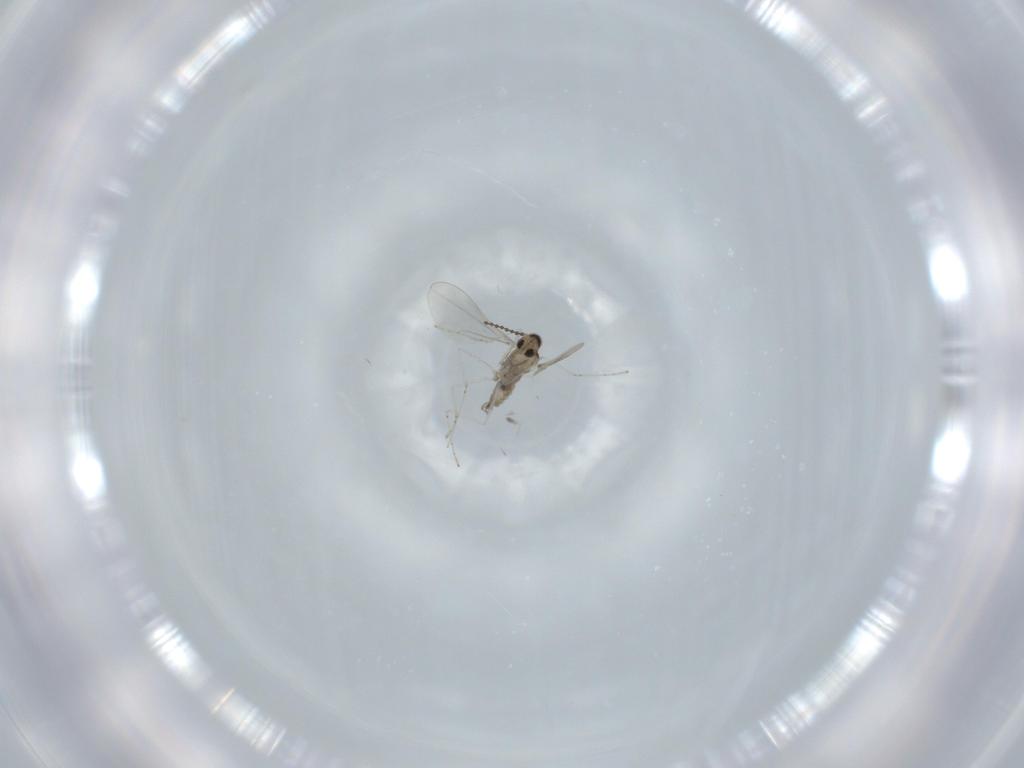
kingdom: Animalia
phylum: Arthropoda
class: Insecta
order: Diptera
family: Cecidomyiidae
